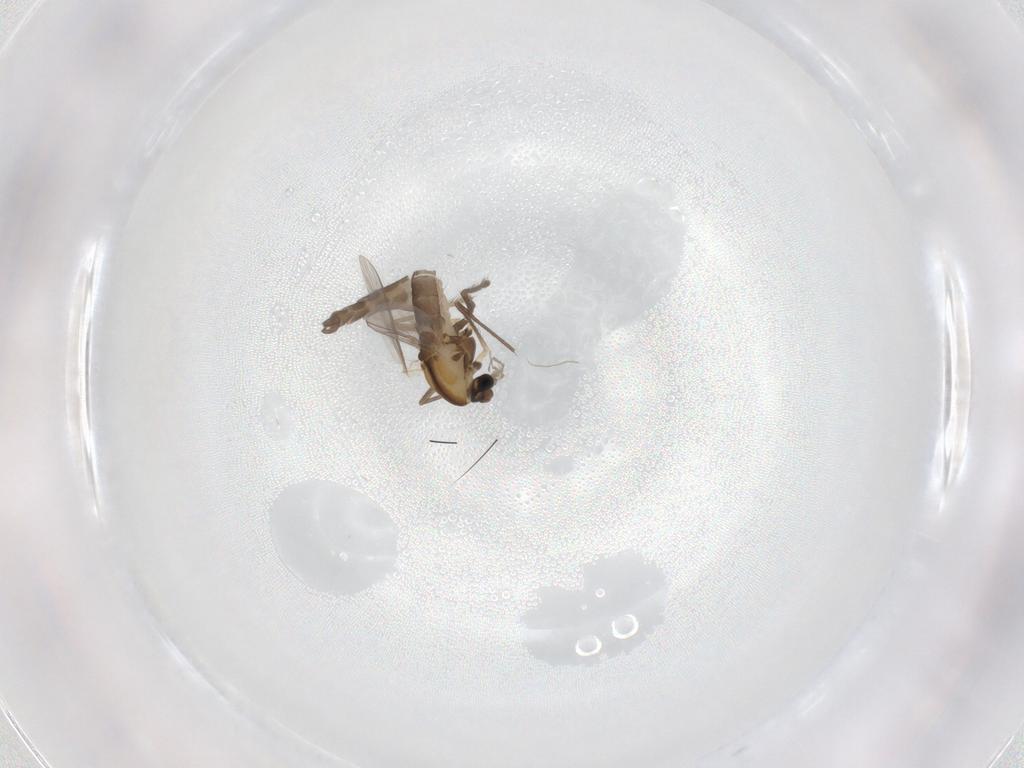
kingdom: Animalia
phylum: Arthropoda
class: Insecta
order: Diptera
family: Chironomidae
